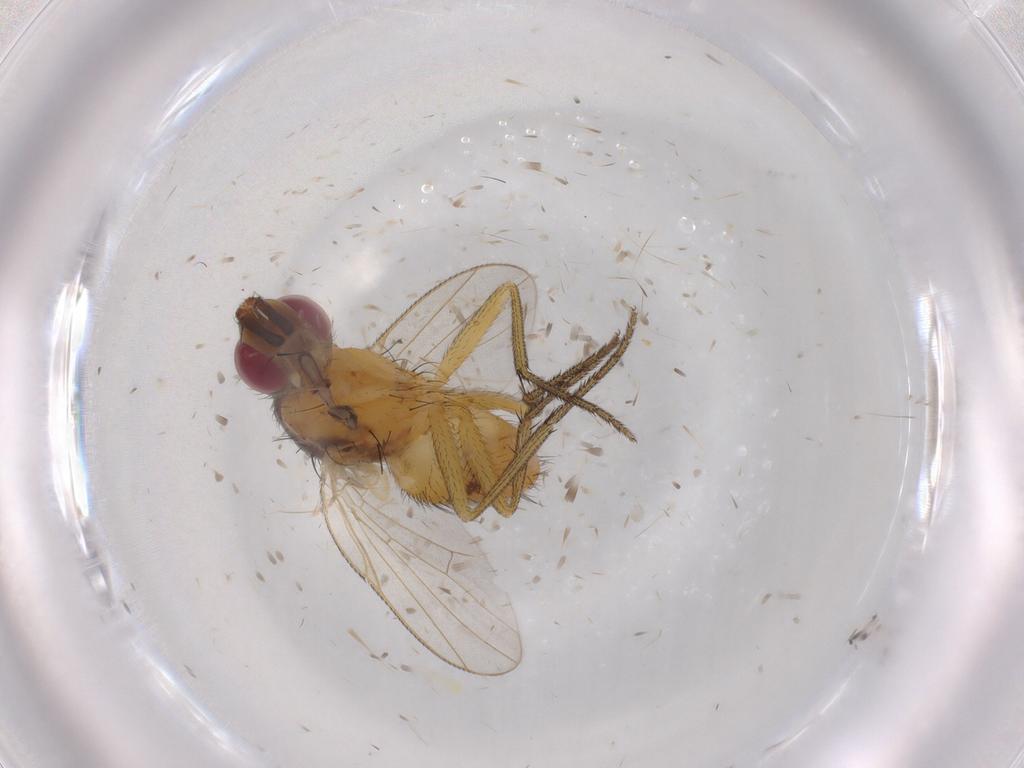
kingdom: Animalia
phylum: Arthropoda
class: Insecta
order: Diptera
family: Muscidae
